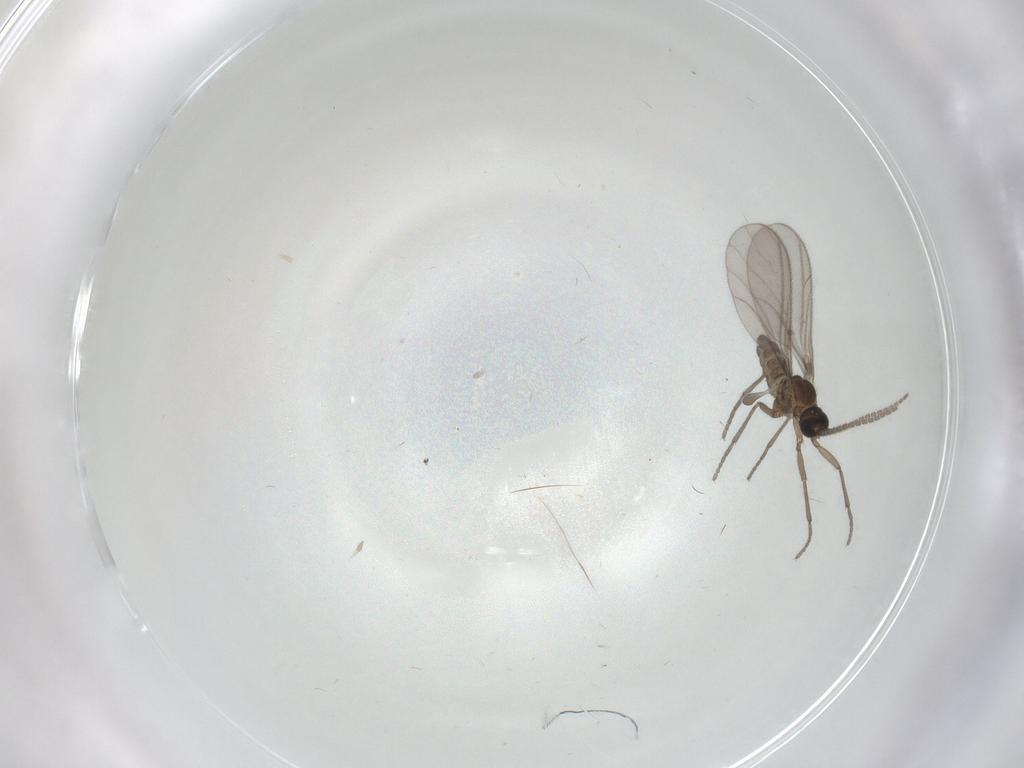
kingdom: Animalia
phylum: Arthropoda
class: Insecta
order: Diptera
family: Sciaridae
